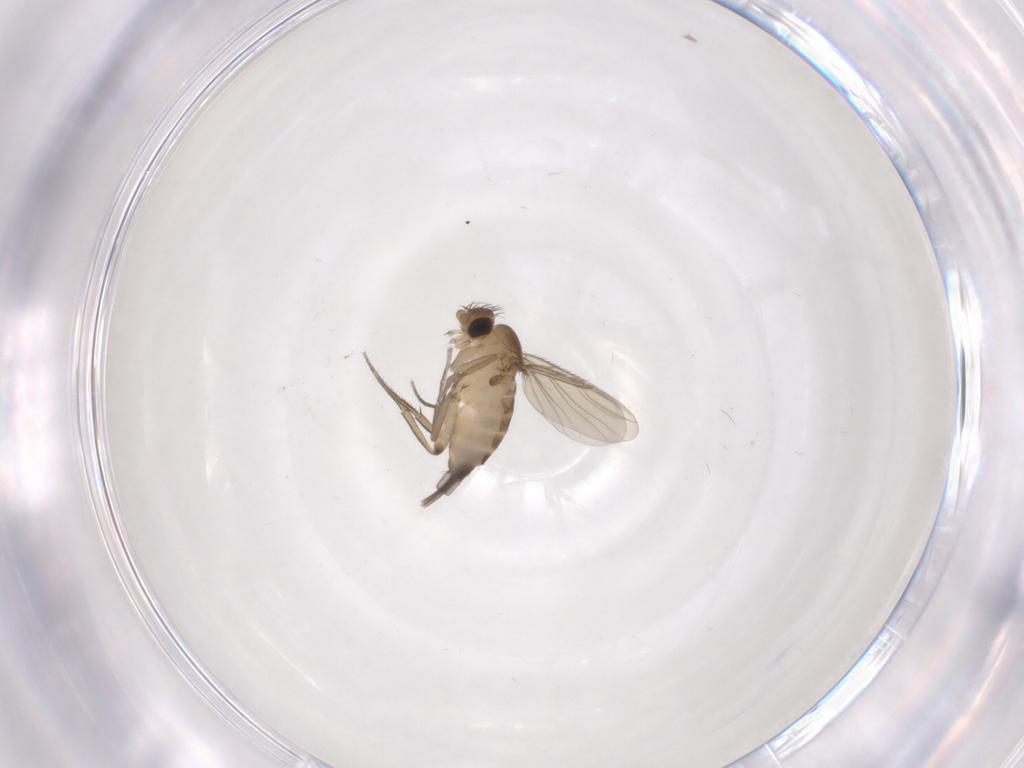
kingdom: Animalia
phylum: Arthropoda
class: Insecta
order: Diptera
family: Phoridae
